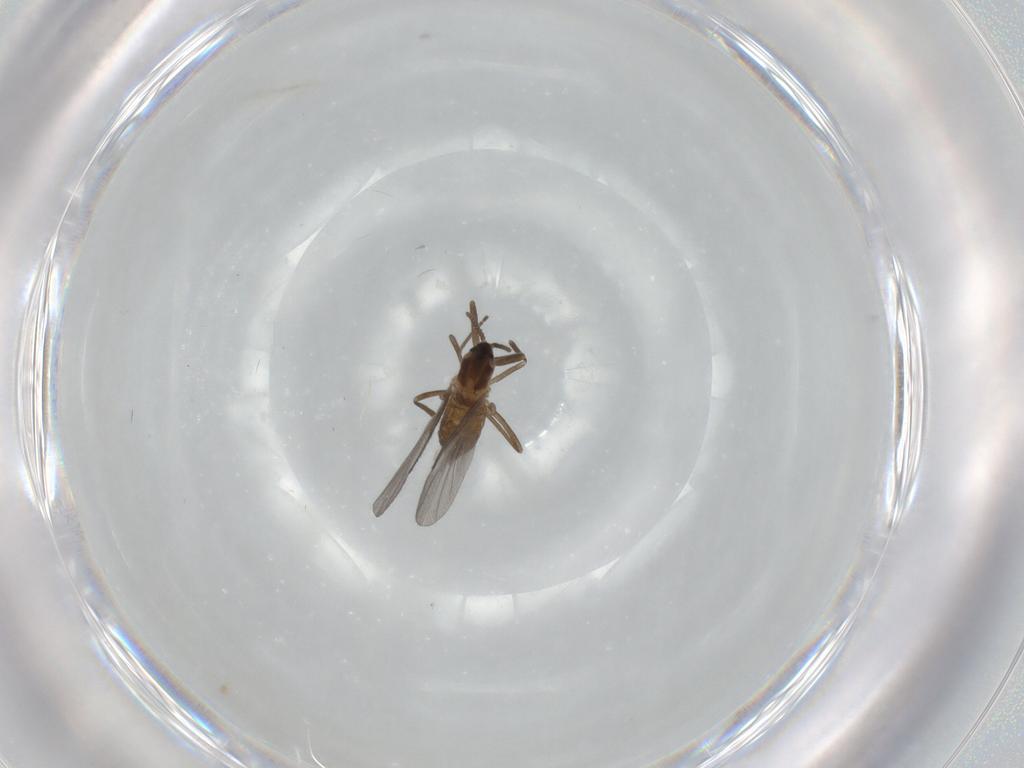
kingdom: Animalia
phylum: Arthropoda
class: Insecta
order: Diptera
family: Cecidomyiidae
